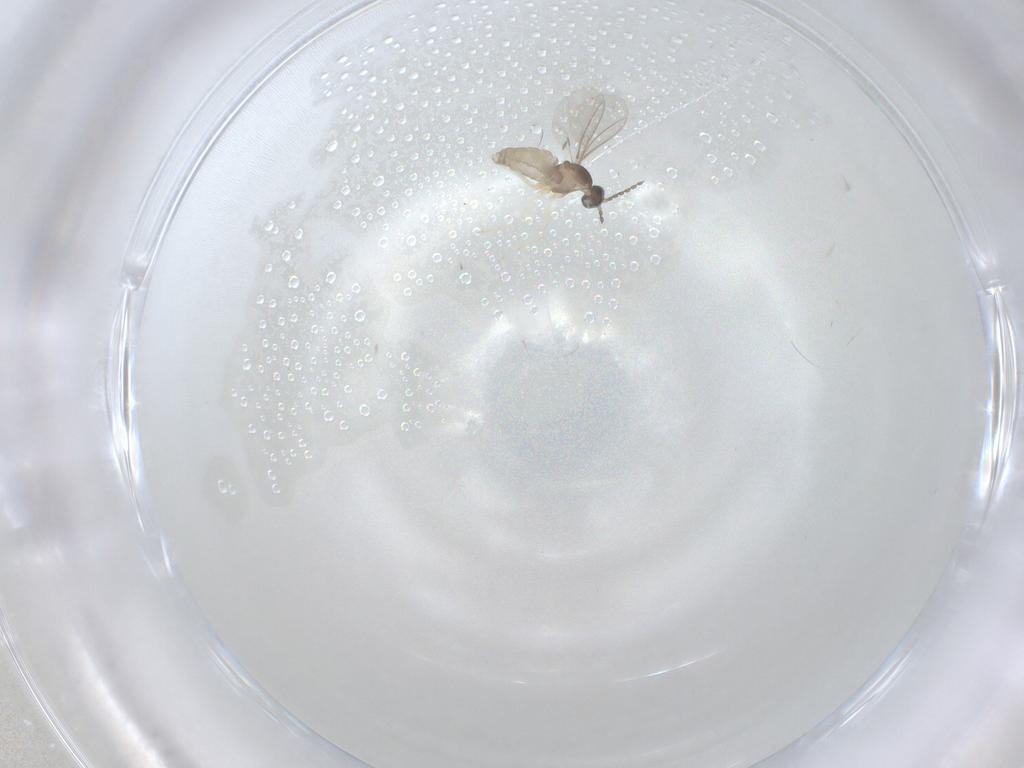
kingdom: Animalia
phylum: Arthropoda
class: Insecta
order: Diptera
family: Cecidomyiidae
